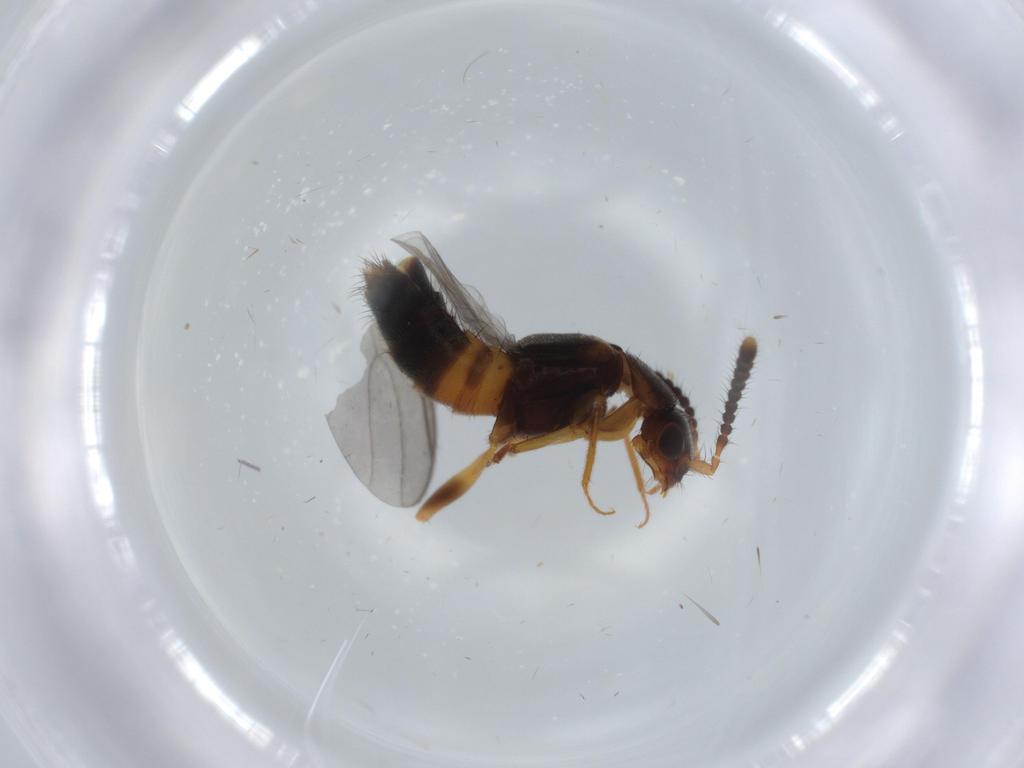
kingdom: Animalia
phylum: Arthropoda
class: Insecta
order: Coleoptera
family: Staphylinidae
